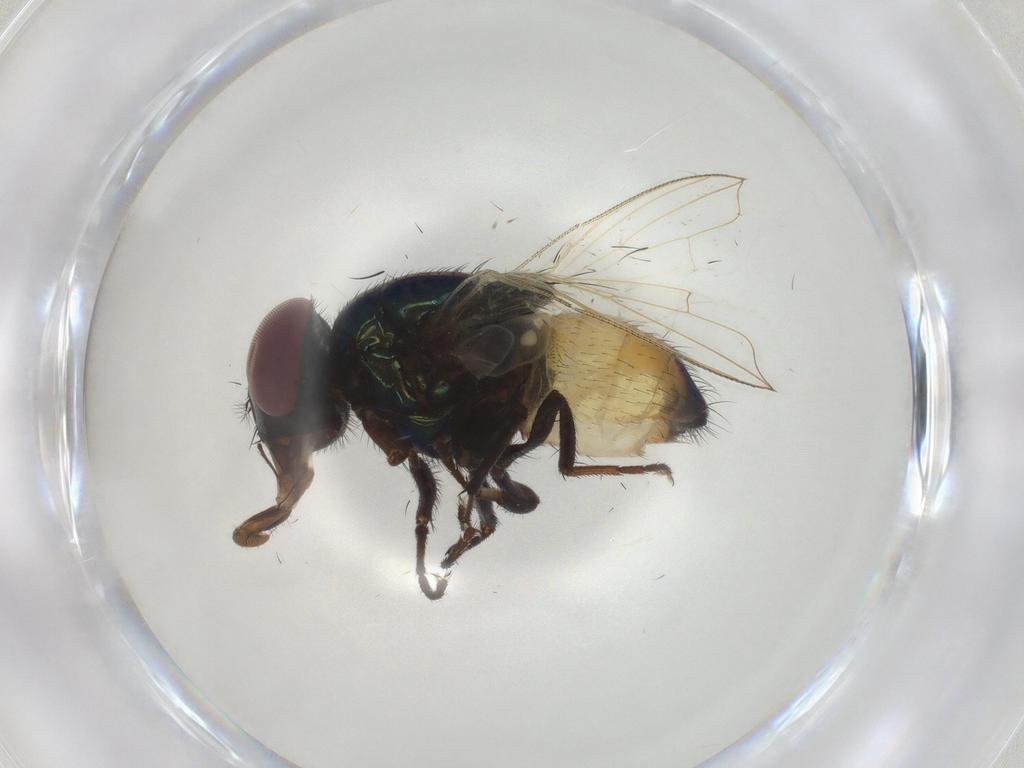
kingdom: Animalia
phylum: Arthropoda
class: Insecta
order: Diptera
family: Muscidae
